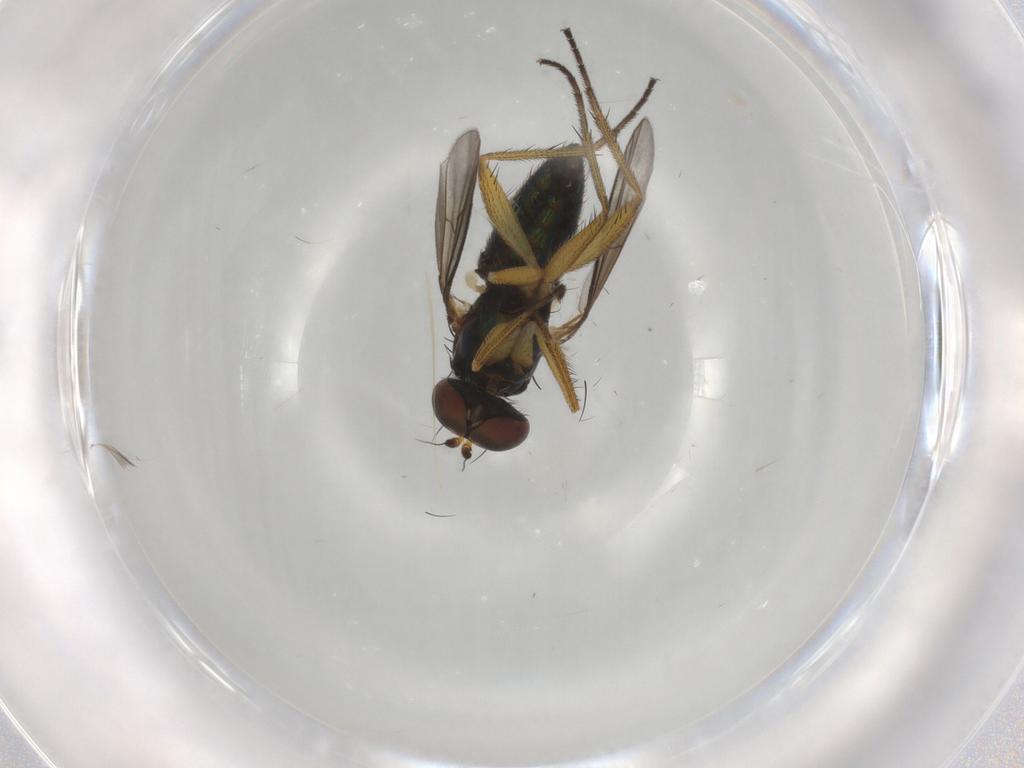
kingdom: Animalia
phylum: Arthropoda
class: Insecta
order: Diptera
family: Dolichopodidae
